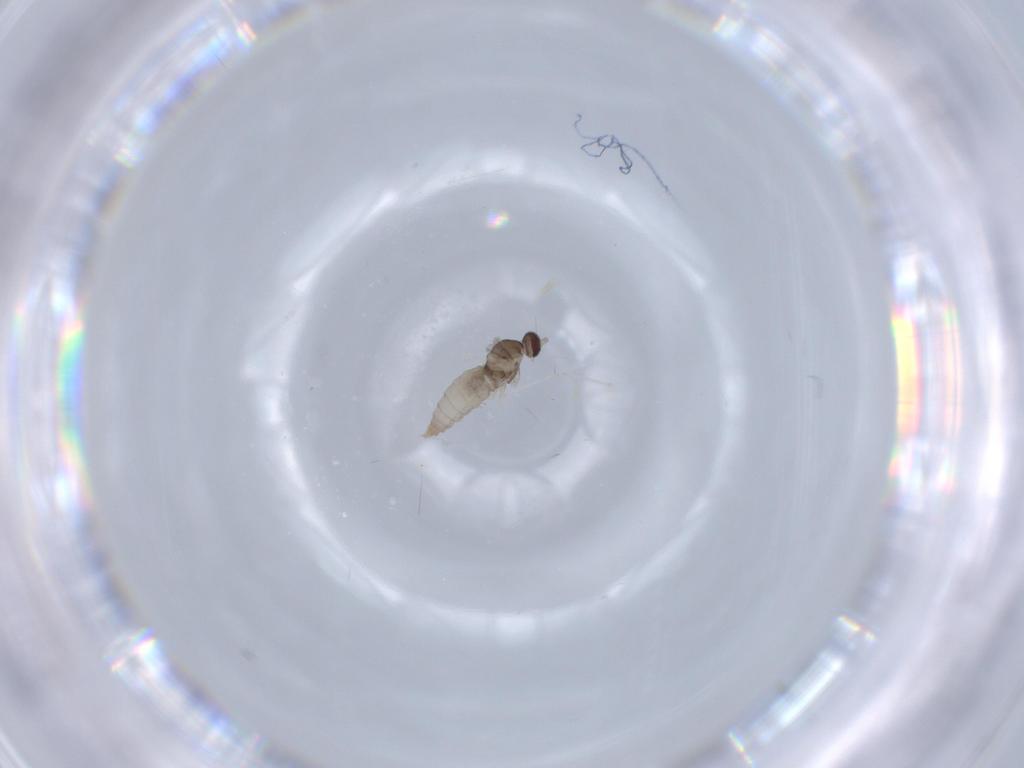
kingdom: Animalia
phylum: Arthropoda
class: Insecta
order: Diptera
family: Cecidomyiidae
